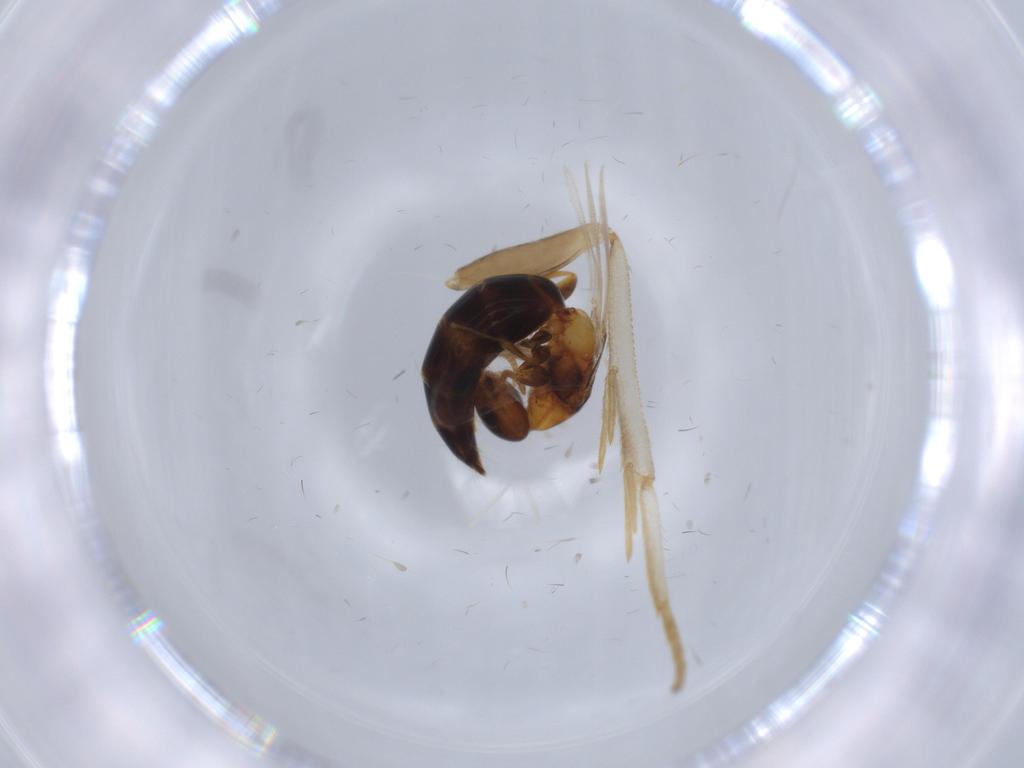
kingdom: Animalia
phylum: Arthropoda
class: Insecta
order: Hymenoptera
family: Bethylidae
